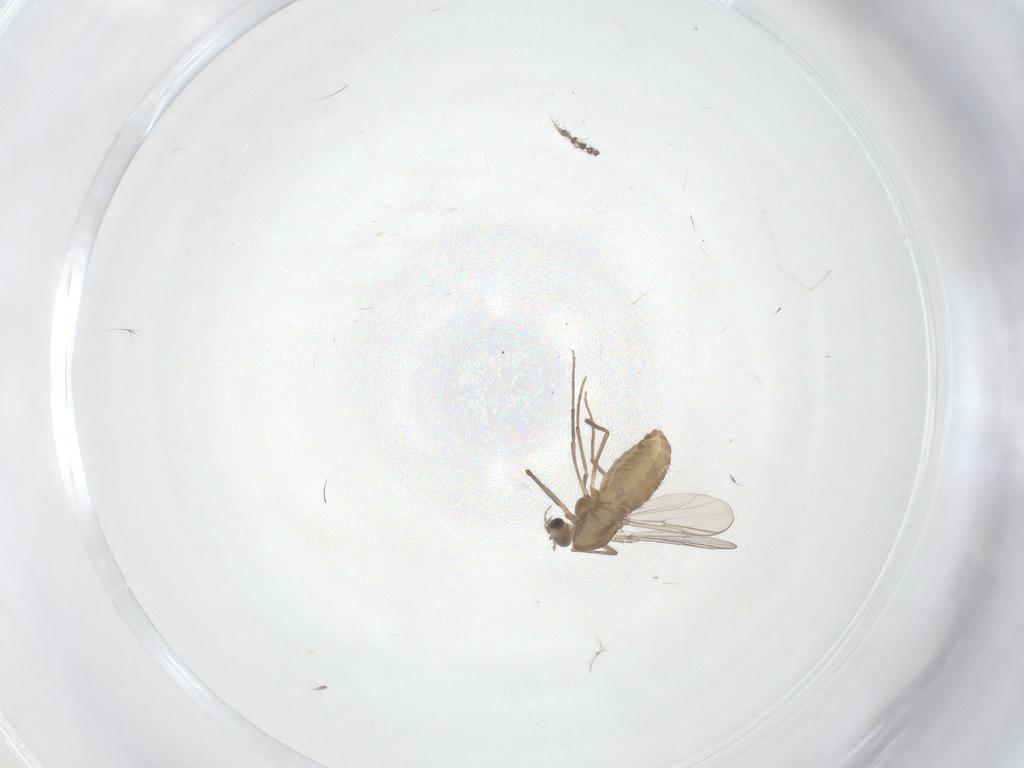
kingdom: Animalia
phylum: Arthropoda
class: Insecta
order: Diptera
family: Chironomidae
